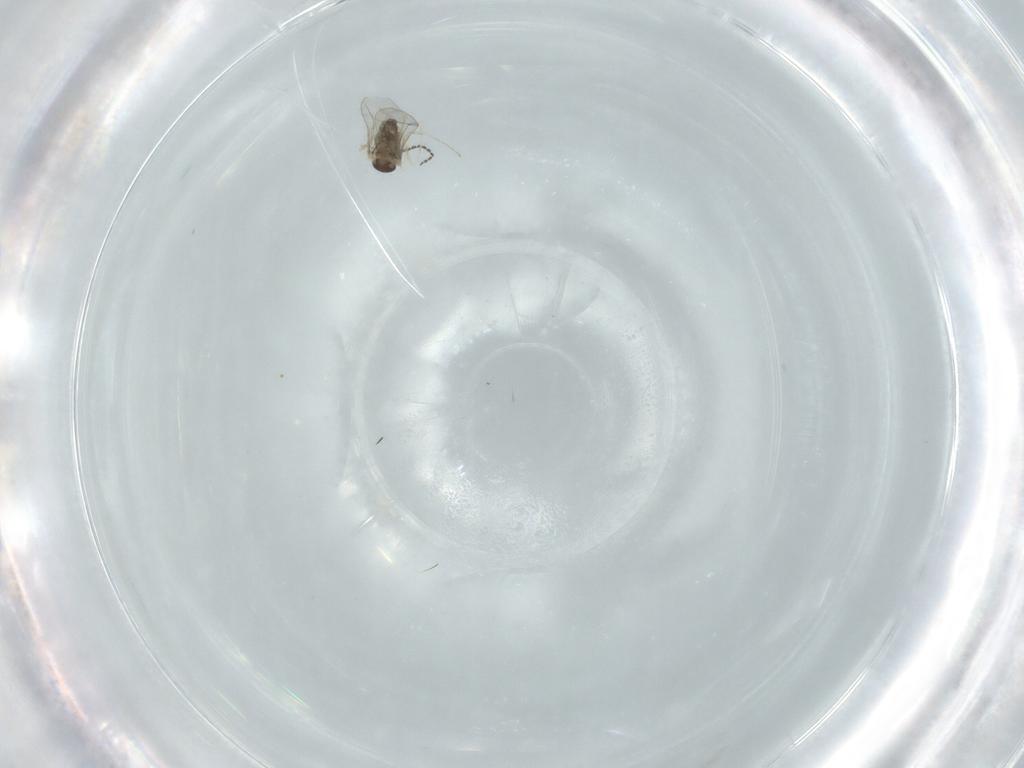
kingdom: Animalia
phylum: Arthropoda
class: Insecta
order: Diptera
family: Cecidomyiidae
